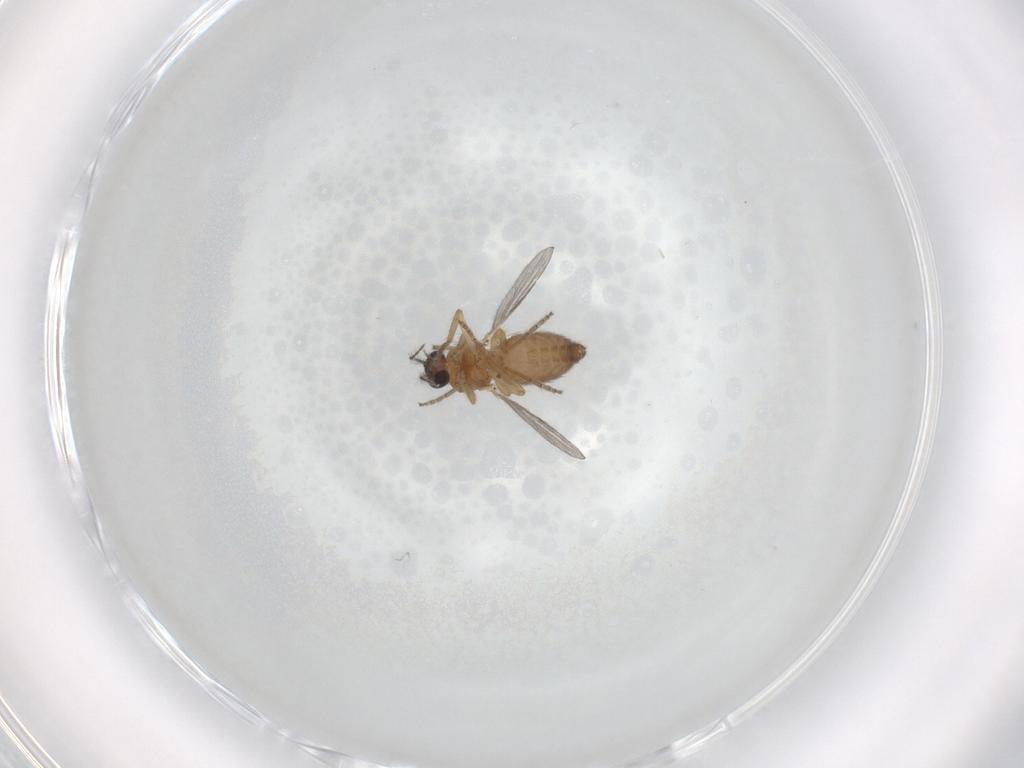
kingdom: Animalia
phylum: Arthropoda
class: Insecta
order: Diptera
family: Ceratopogonidae
